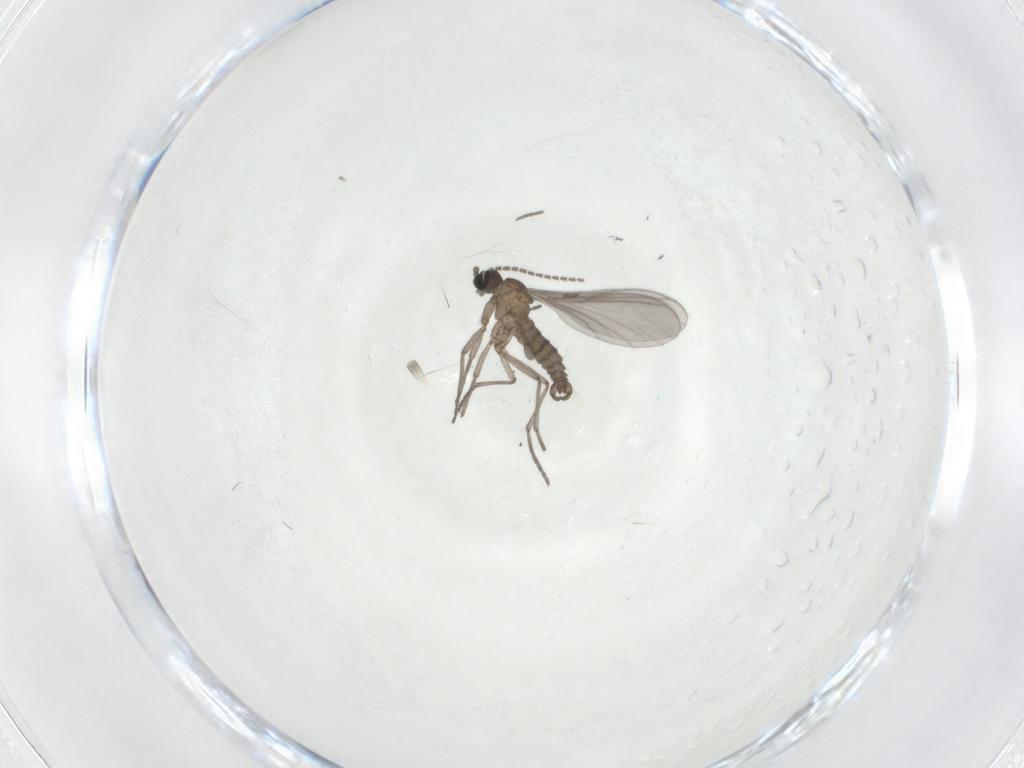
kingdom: Animalia
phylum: Arthropoda
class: Insecta
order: Diptera
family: Sciaridae
